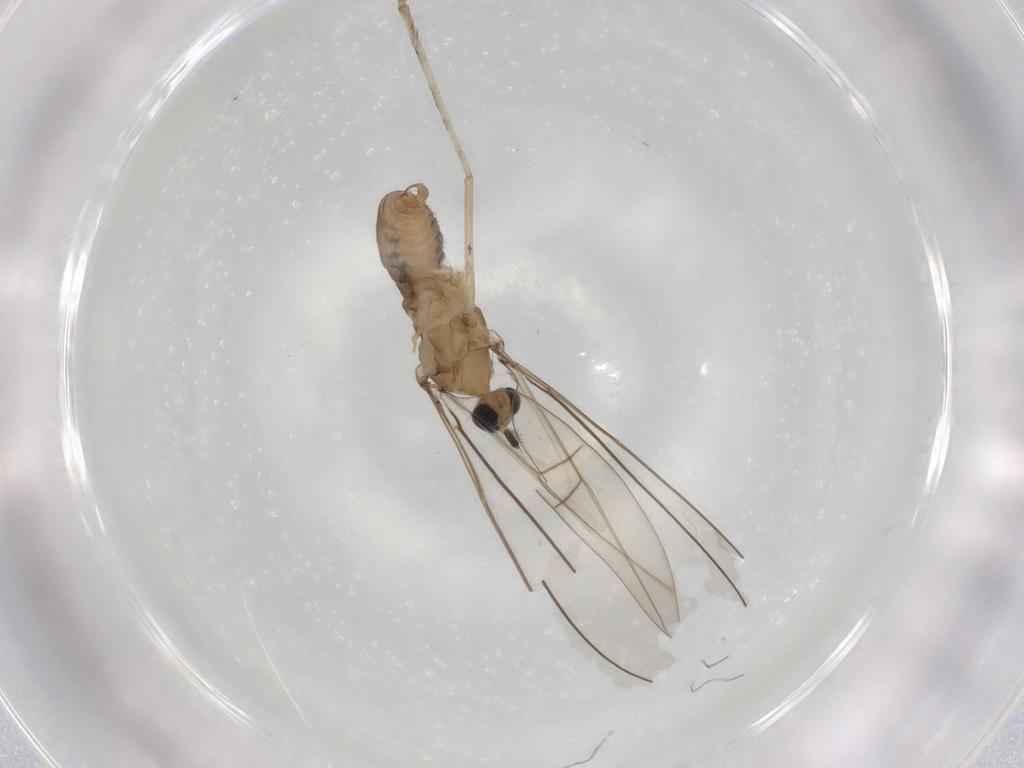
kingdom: Animalia
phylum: Arthropoda
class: Insecta
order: Diptera
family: Cecidomyiidae
